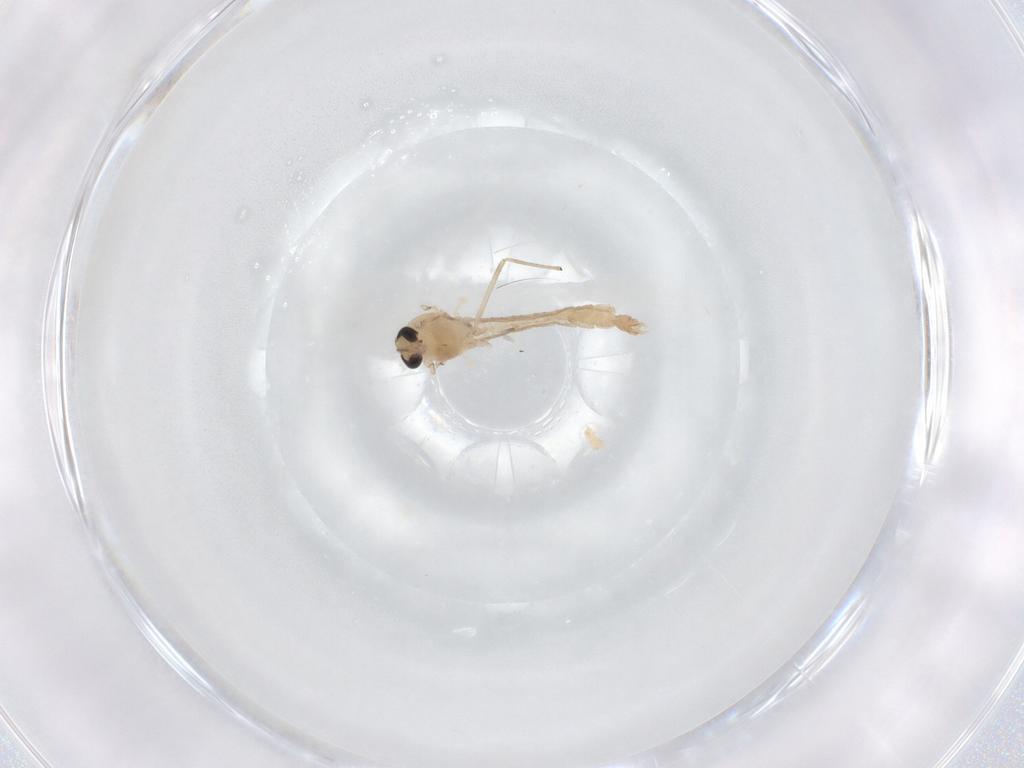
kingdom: Animalia
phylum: Arthropoda
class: Insecta
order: Diptera
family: Chironomidae
